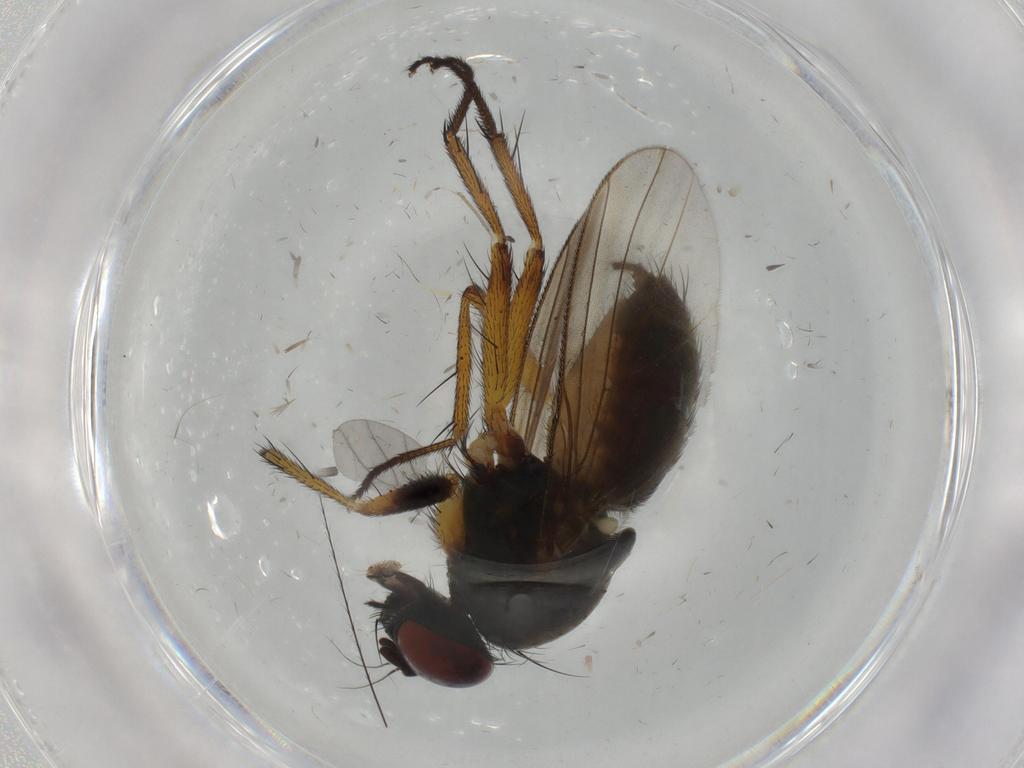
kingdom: Animalia
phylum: Arthropoda
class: Insecta
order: Diptera
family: Muscidae
